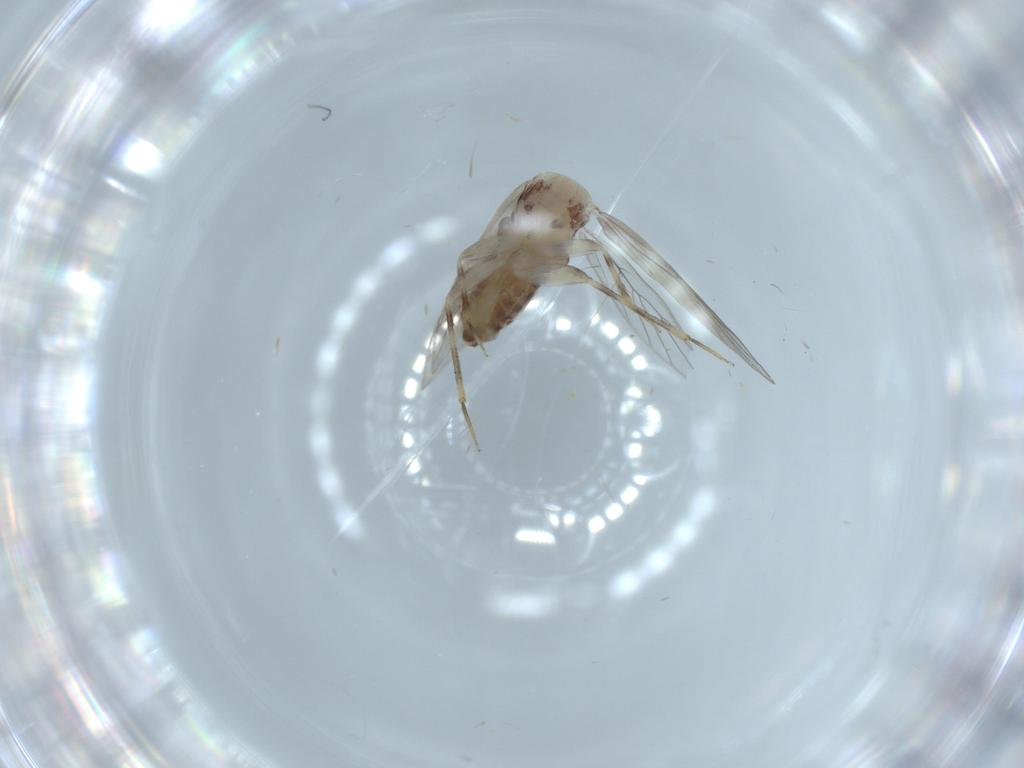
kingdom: Animalia
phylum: Arthropoda
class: Insecta
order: Psocodea
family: Lepidopsocidae
